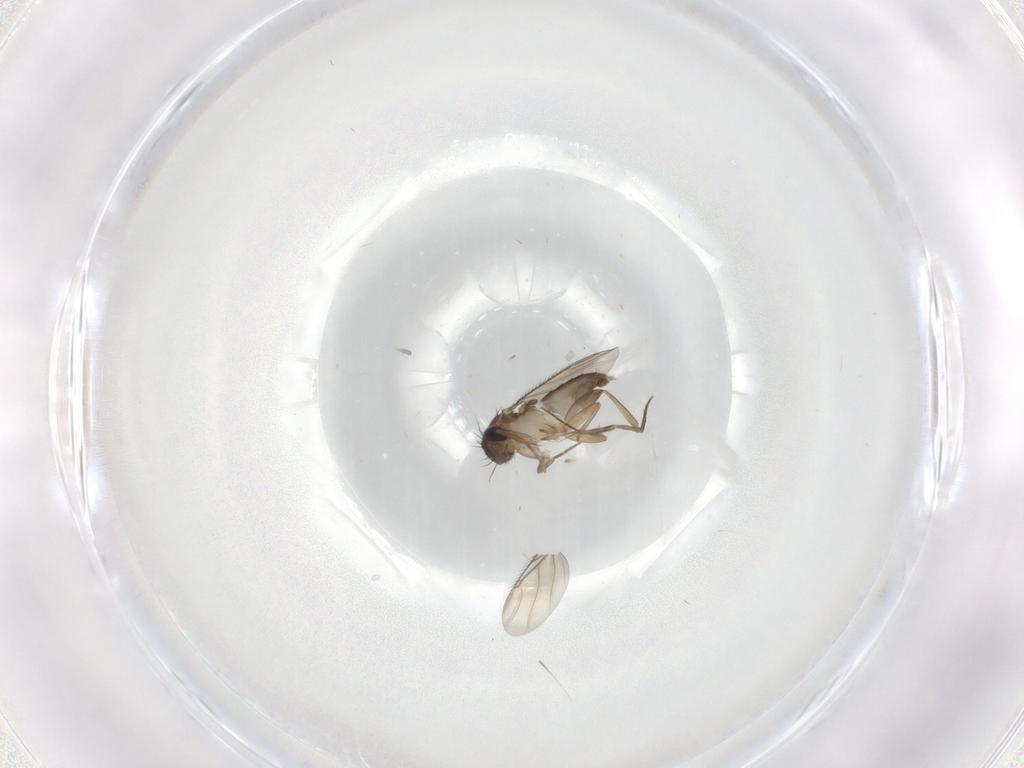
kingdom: Animalia
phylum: Arthropoda
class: Insecta
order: Diptera
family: Phoridae
